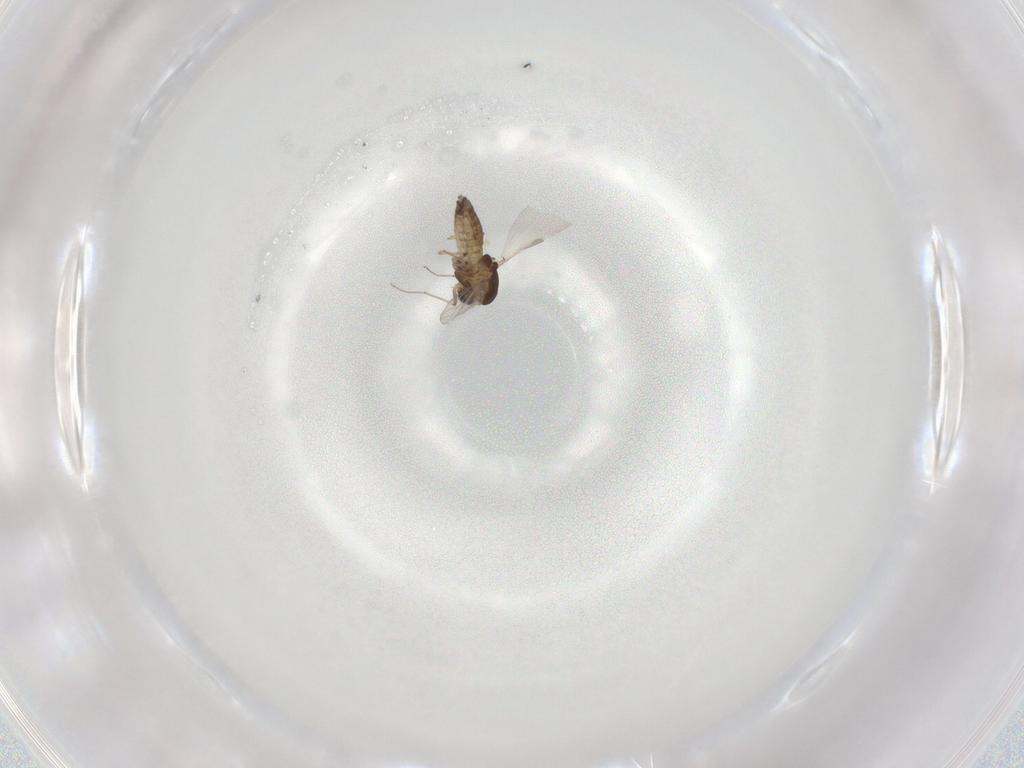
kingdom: Animalia
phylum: Arthropoda
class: Insecta
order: Diptera
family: Chironomidae
